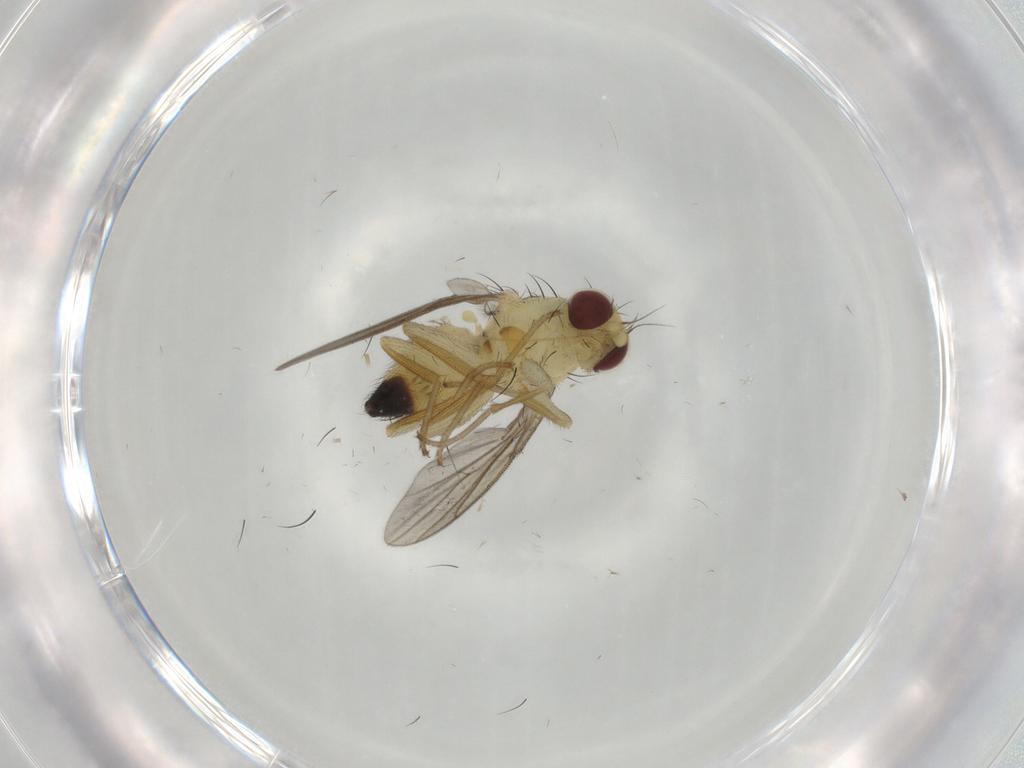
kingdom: Animalia
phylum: Arthropoda
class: Insecta
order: Diptera
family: Agromyzidae
